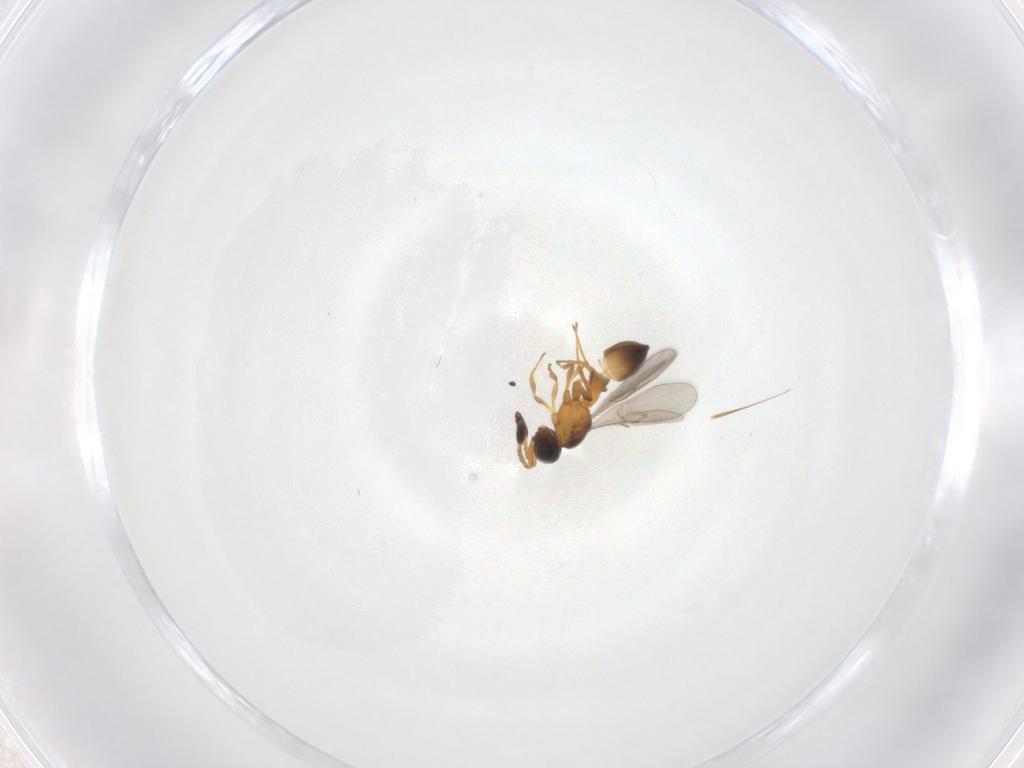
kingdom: Animalia
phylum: Arthropoda
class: Insecta
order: Hymenoptera
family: Scelionidae
